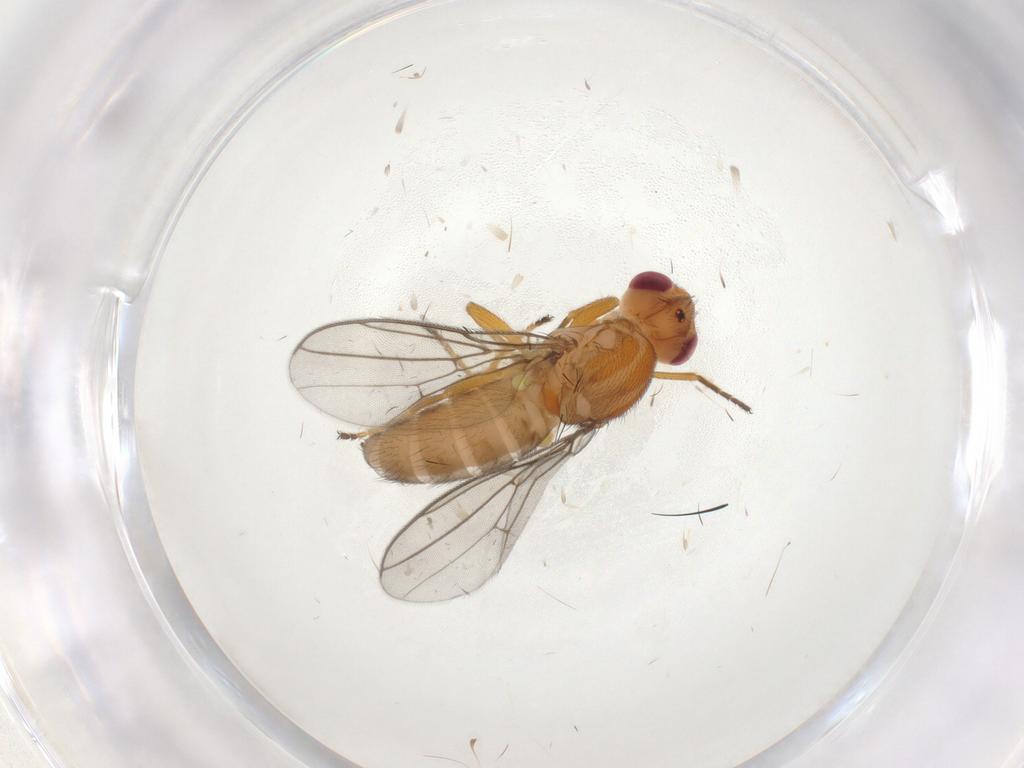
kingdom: Animalia
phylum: Arthropoda
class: Insecta
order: Diptera
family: Chloropidae
